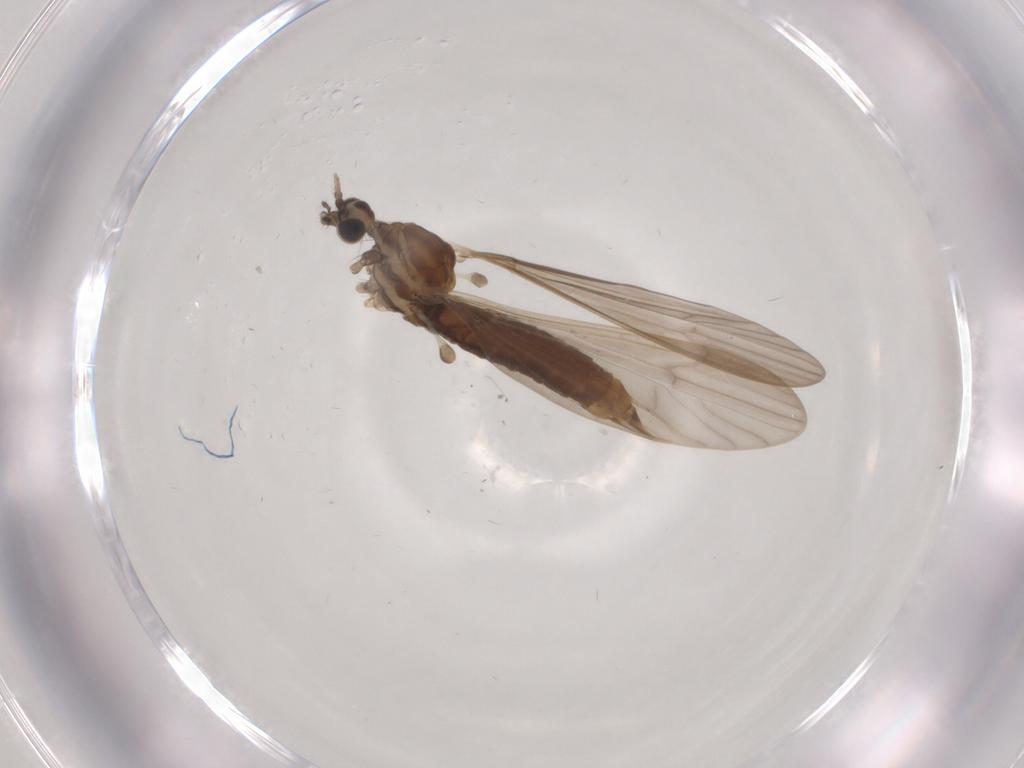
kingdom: Animalia
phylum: Arthropoda
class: Insecta
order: Diptera
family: Limoniidae
